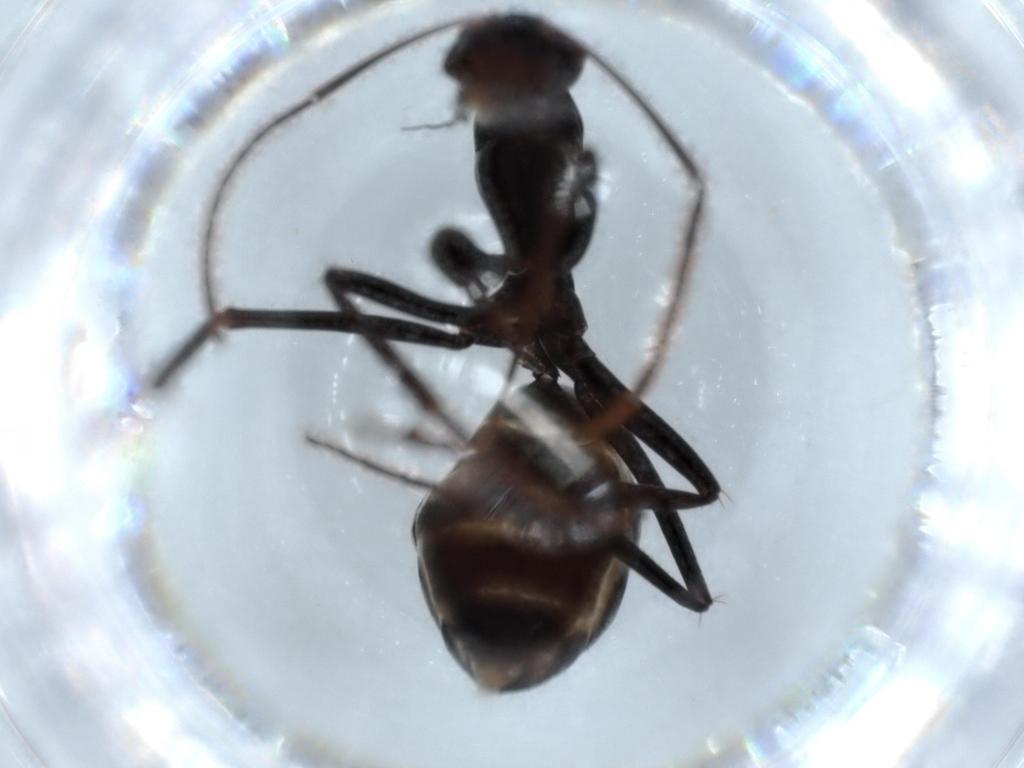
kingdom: Animalia
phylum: Arthropoda
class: Insecta
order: Hymenoptera
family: Formicidae
